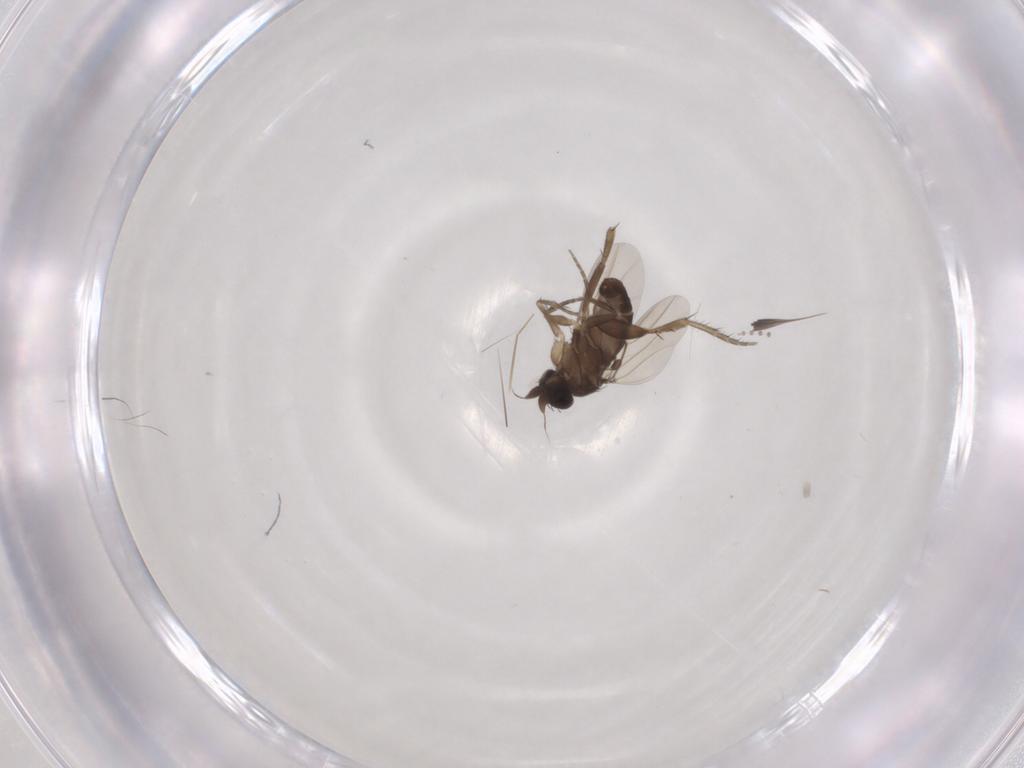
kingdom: Animalia
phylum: Arthropoda
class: Insecta
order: Diptera
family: Phoridae
